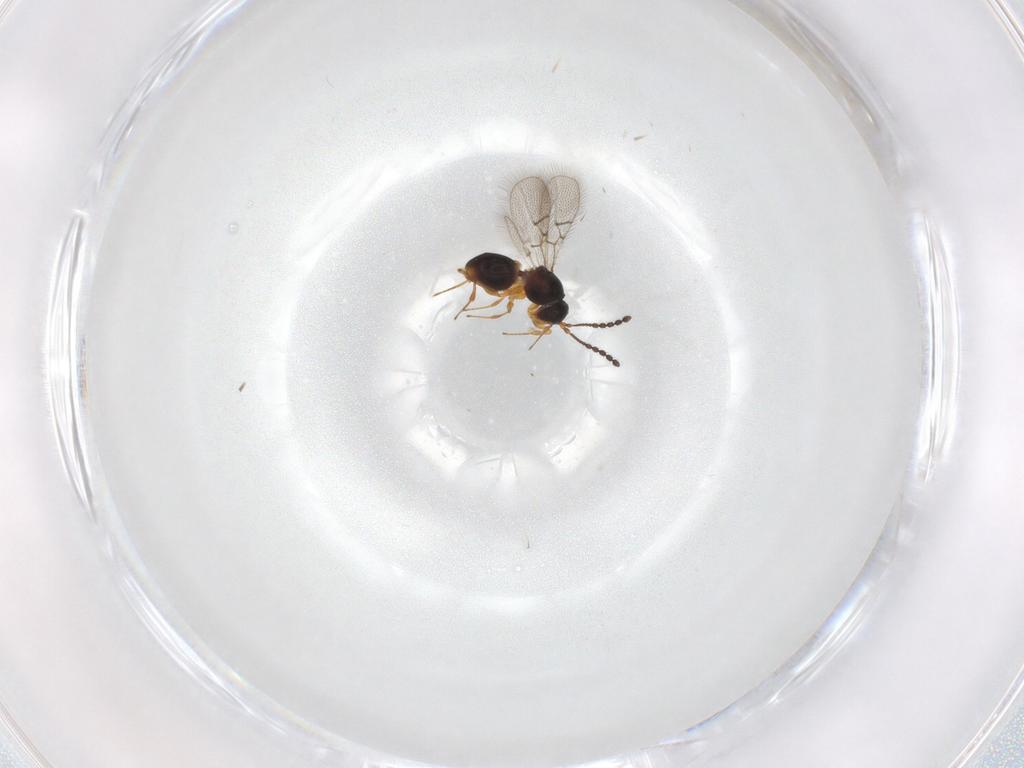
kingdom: Animalia
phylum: Arthropoda
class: Insecta
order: Hymenoptera
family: Figitidae
